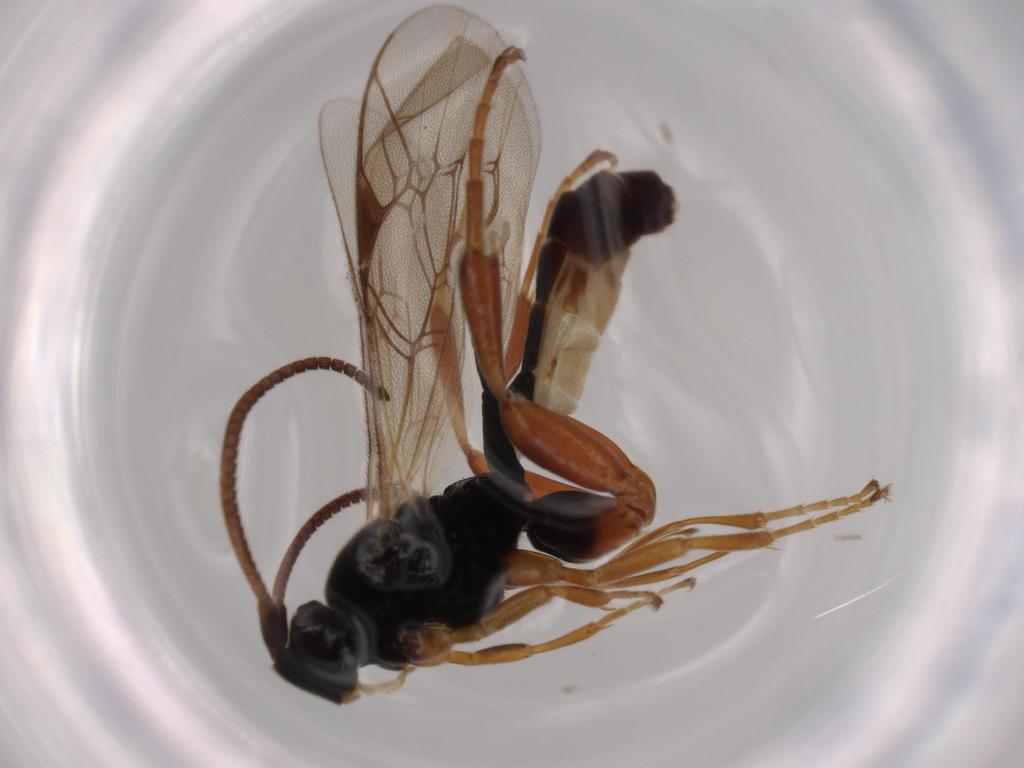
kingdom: Animalia
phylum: Arthropoda
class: Insecta
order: Hymenoptera
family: Ichneumonidae
